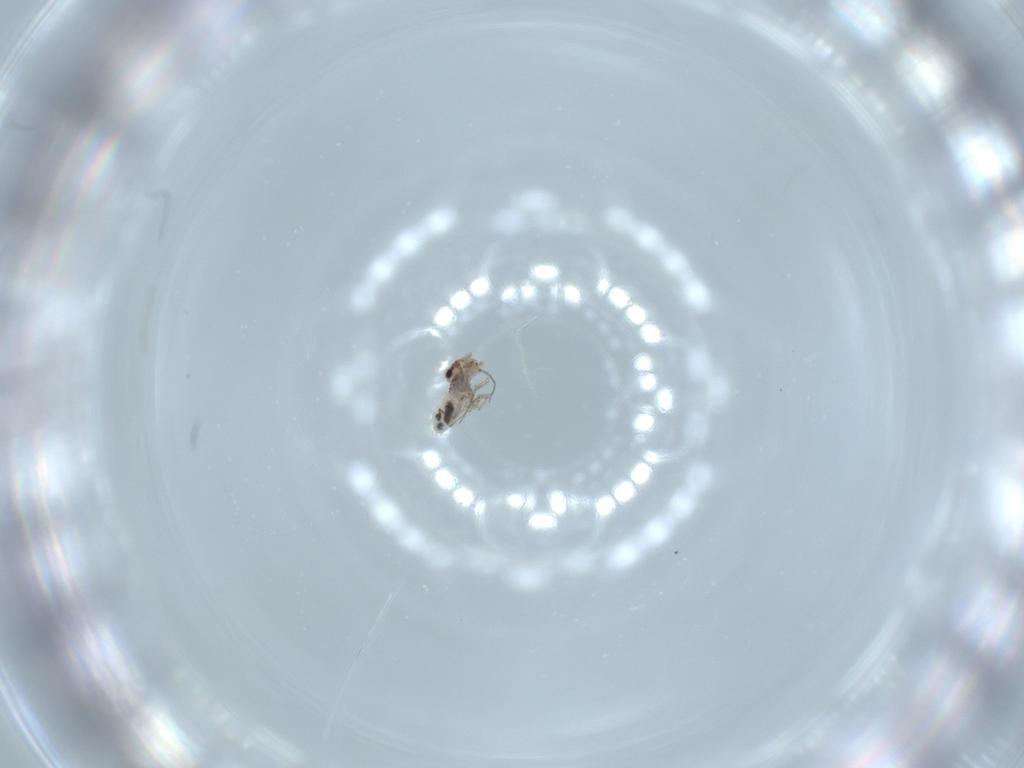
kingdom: Animalia
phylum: Arthropoda
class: Insecta
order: Psocodea
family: Lepidopsocidae
